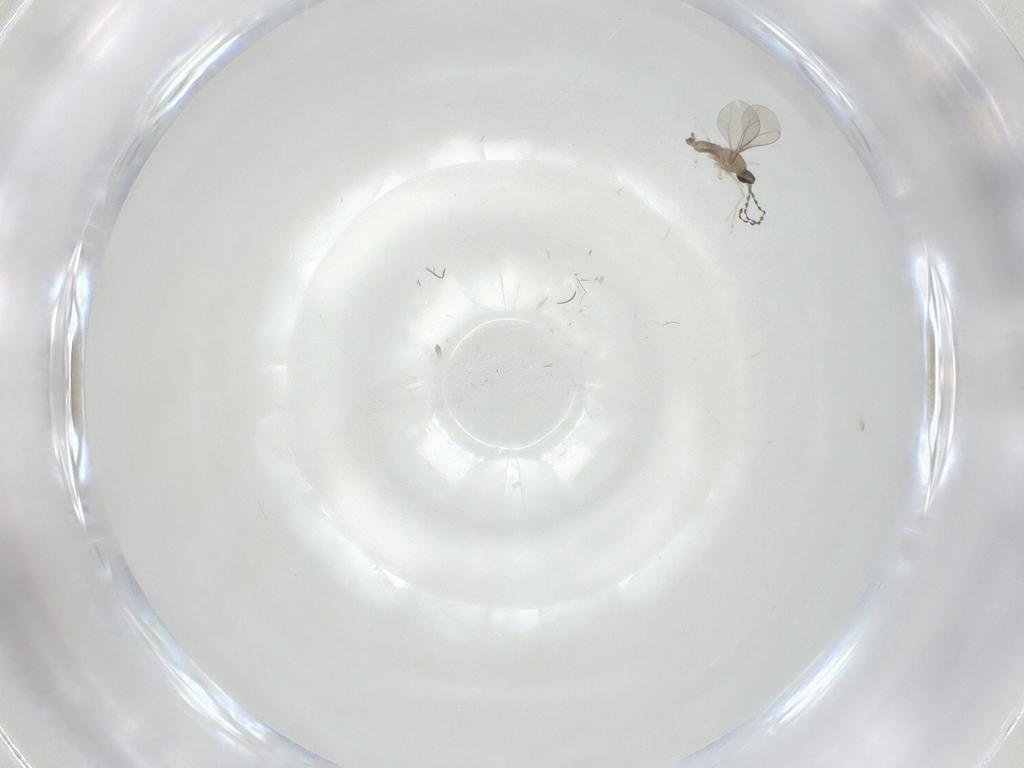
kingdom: Animalia
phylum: Arthropoda
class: Insecta
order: Diptera
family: Cecidomyiidae
